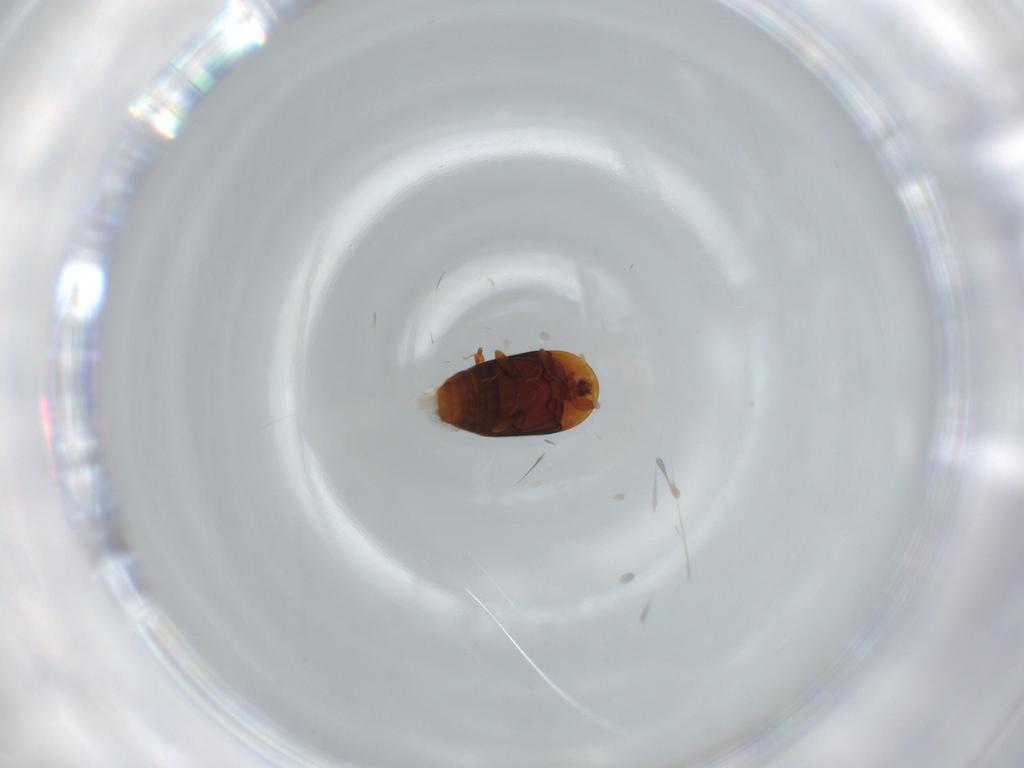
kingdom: Animalia
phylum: Arthropoda
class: Insecta
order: Coleoptera
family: Corylophidae
